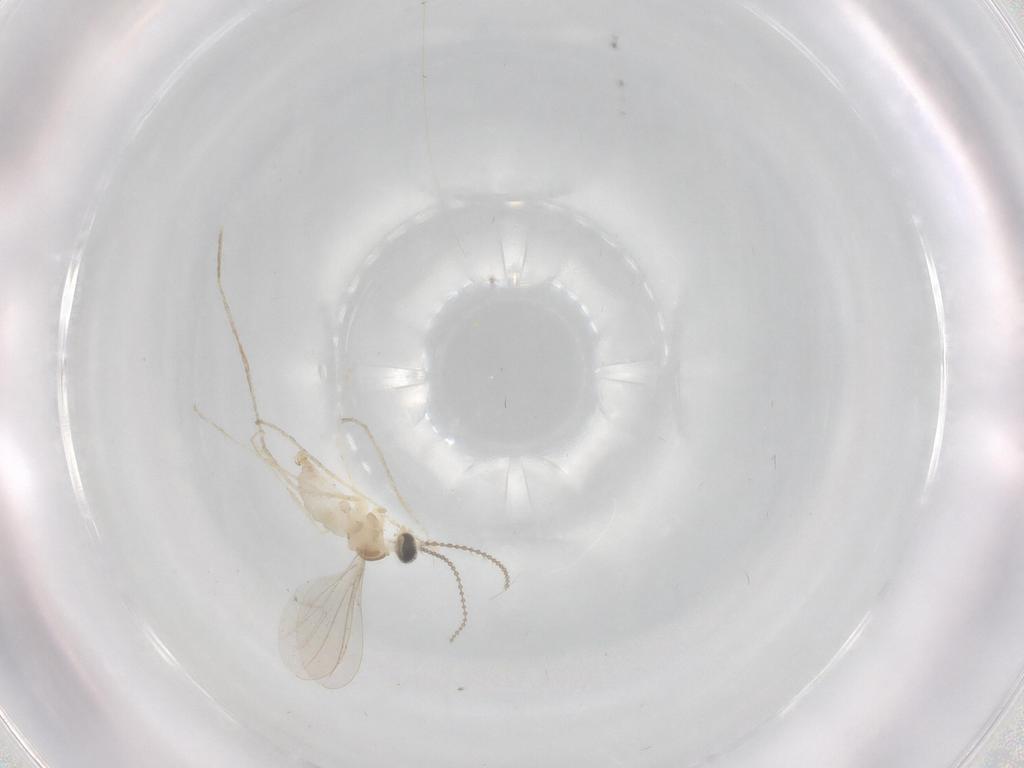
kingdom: Animalia
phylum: Arthropoda
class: Insecta
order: Diptera
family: Cecidomyiidae
